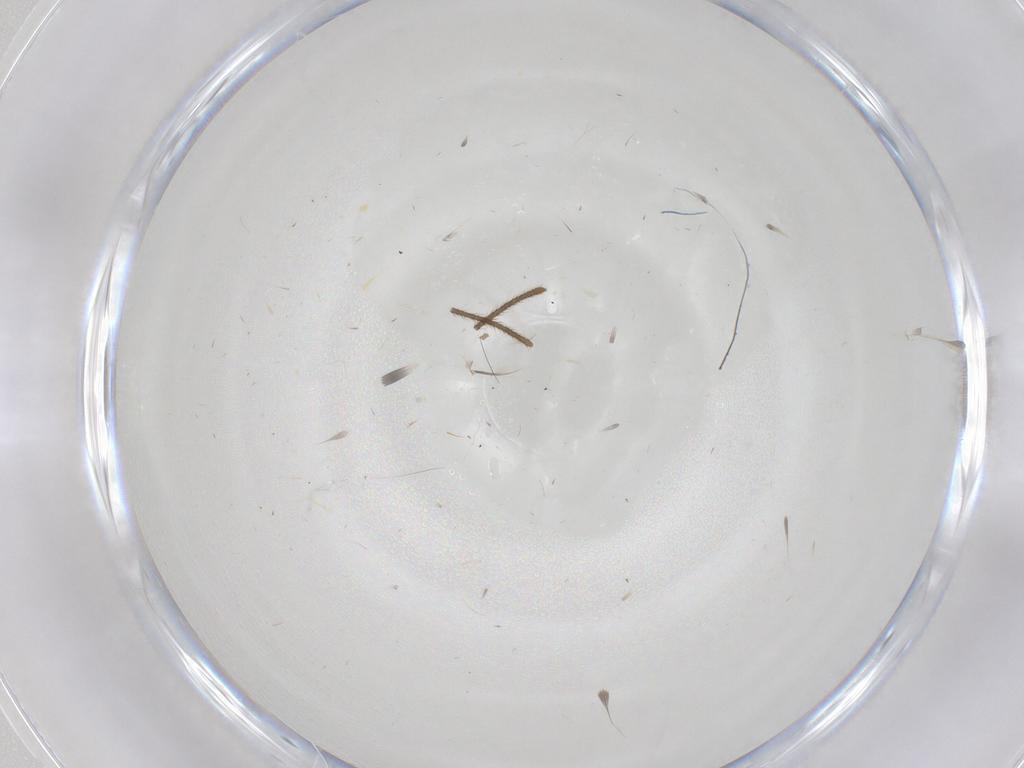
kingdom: Animalia
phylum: Arthropoda
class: Insecta
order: Diptera
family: Sciaridae
